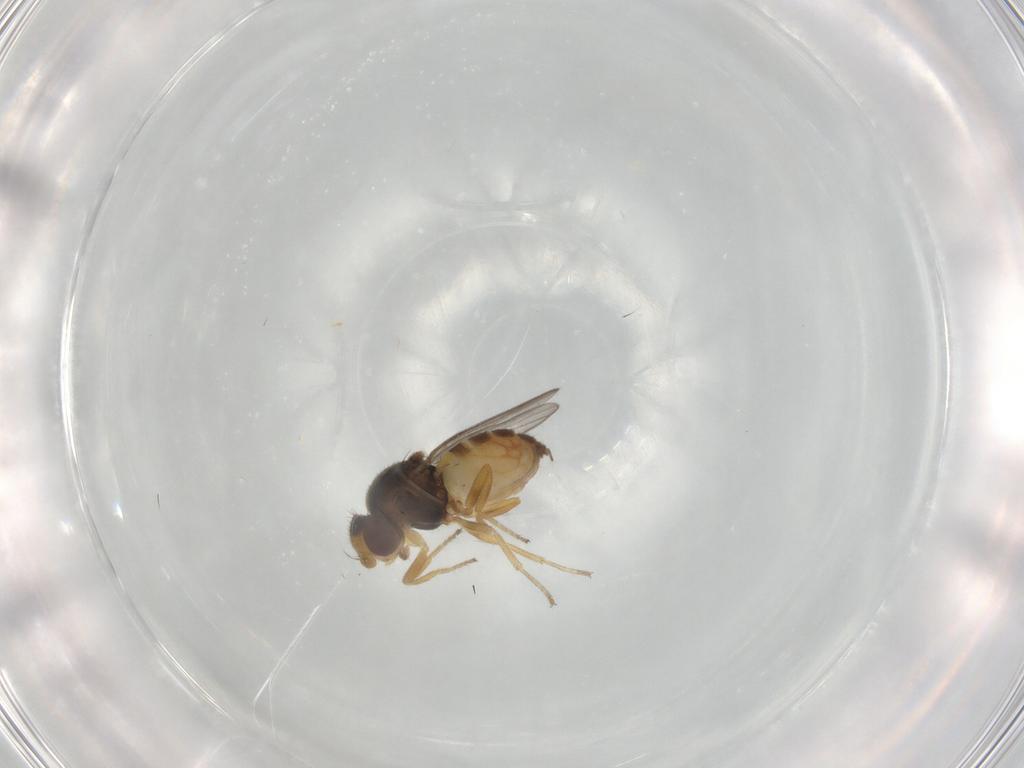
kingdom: Animalia
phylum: Arthropoda
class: Insecta
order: Diptera
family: Chloropidae
